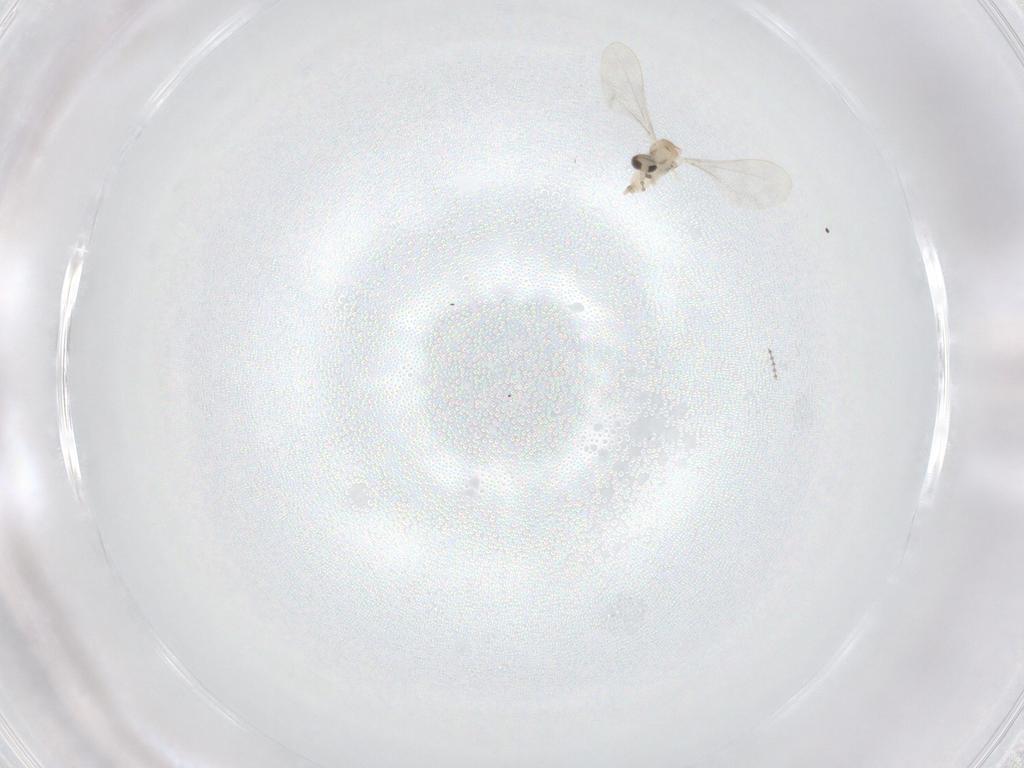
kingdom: Animalia
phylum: Arthropoda
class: Insecta
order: Diptera
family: Cecidomyiidae
